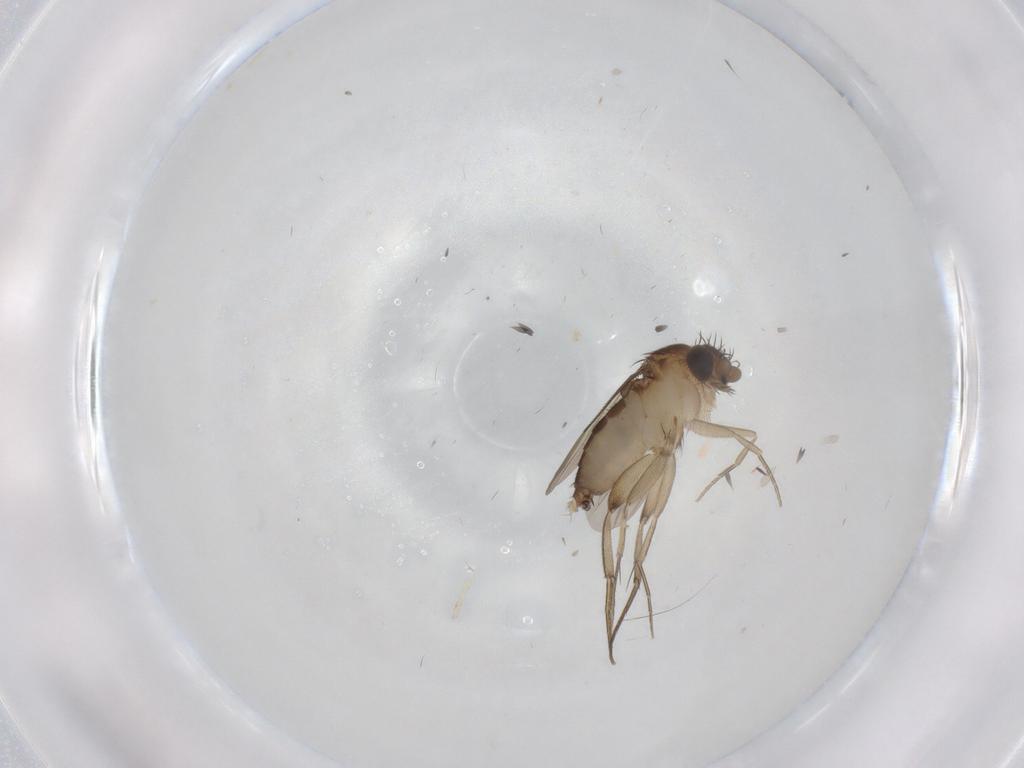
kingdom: Animalia
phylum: Arthropoda
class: Insecta
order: Diptera
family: Phoridae
